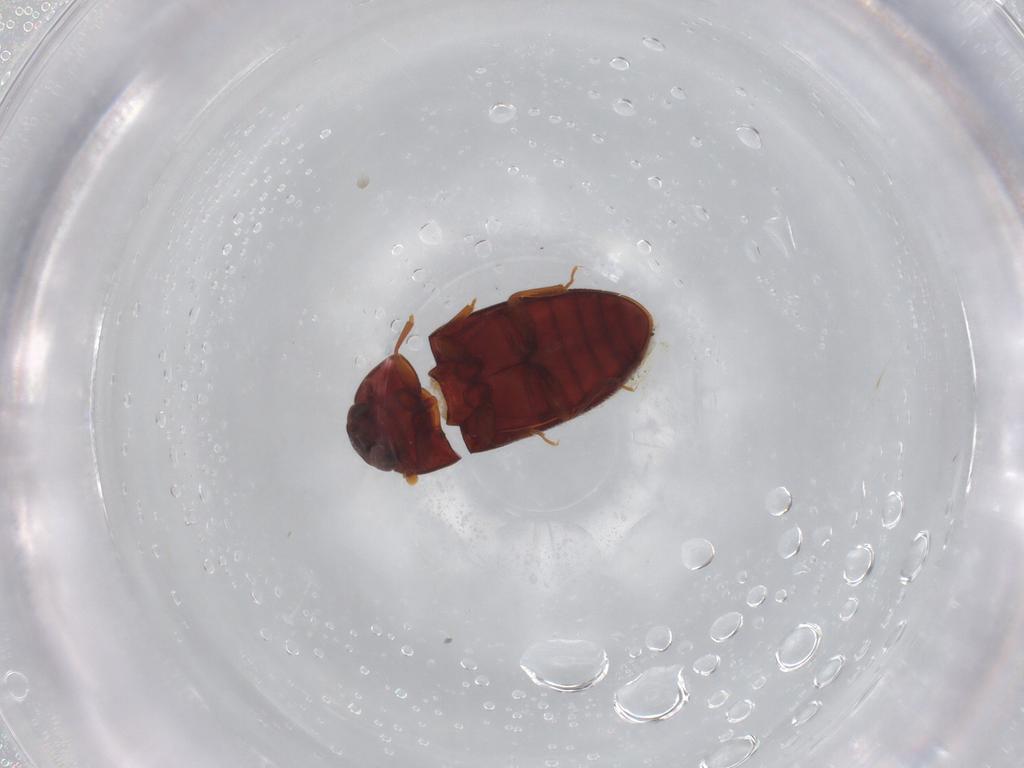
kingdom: Animalia
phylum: Arthropoda
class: Insecta
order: Coleoptera
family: Biphyllidae
